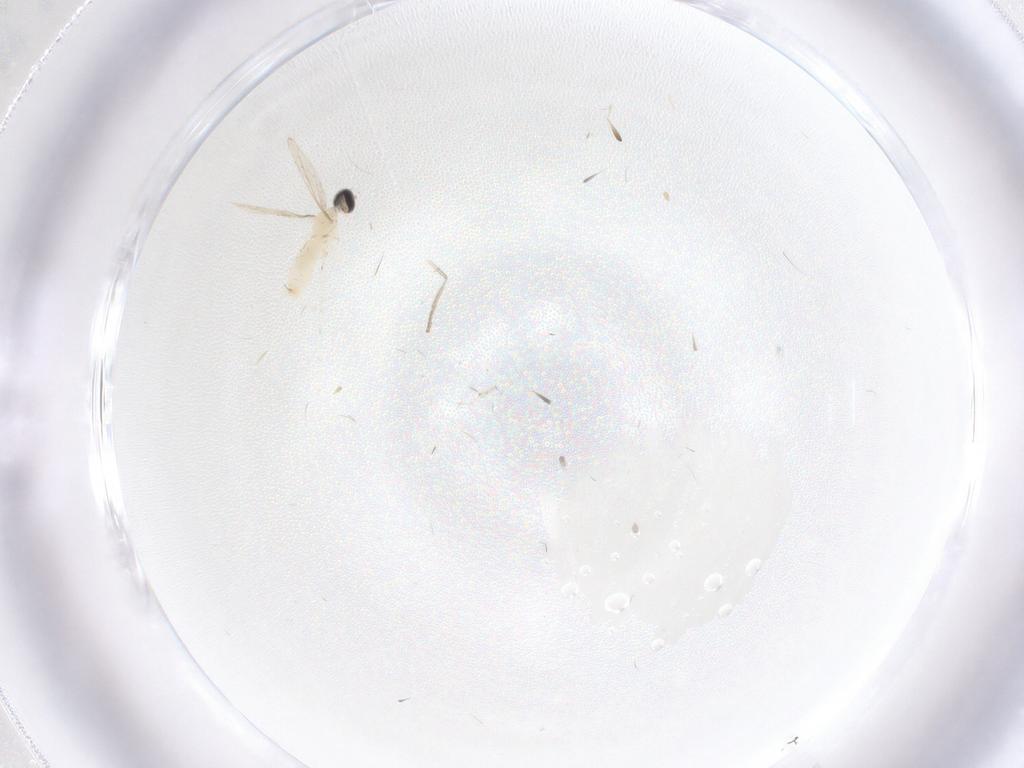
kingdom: Animalia
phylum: Arthropoda
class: Insecta
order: Diptera
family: Cecidomyiidae
